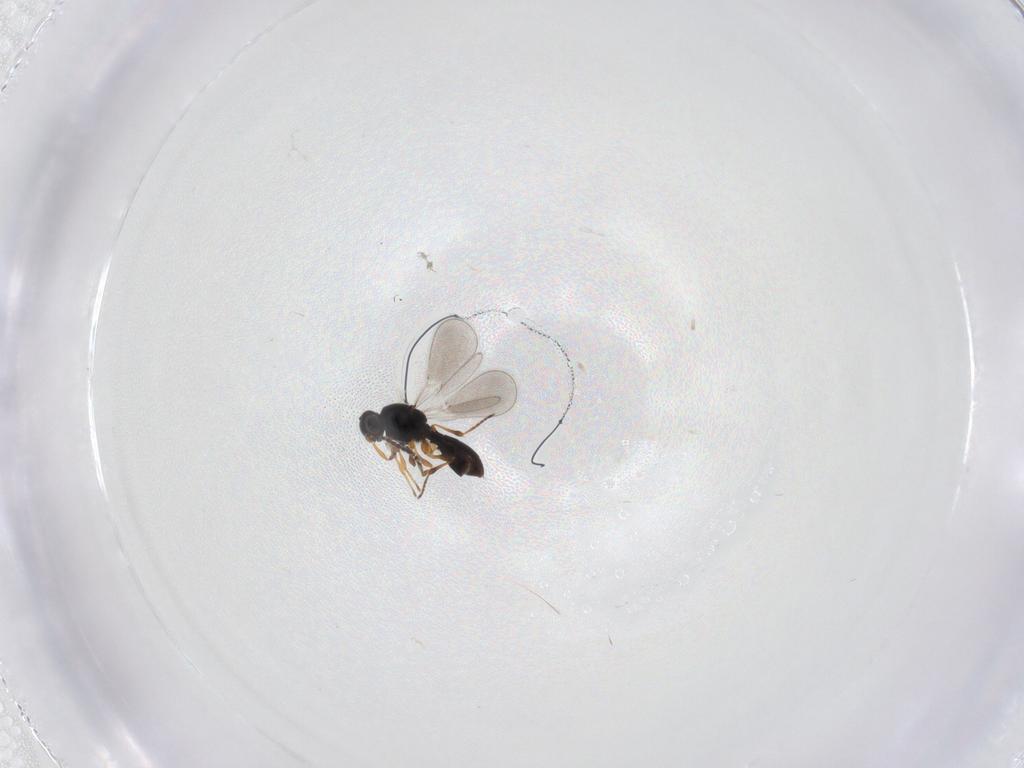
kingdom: Animalia
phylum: Arthropoda
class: Insecta
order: Hymenoptera
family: Platygastridae
